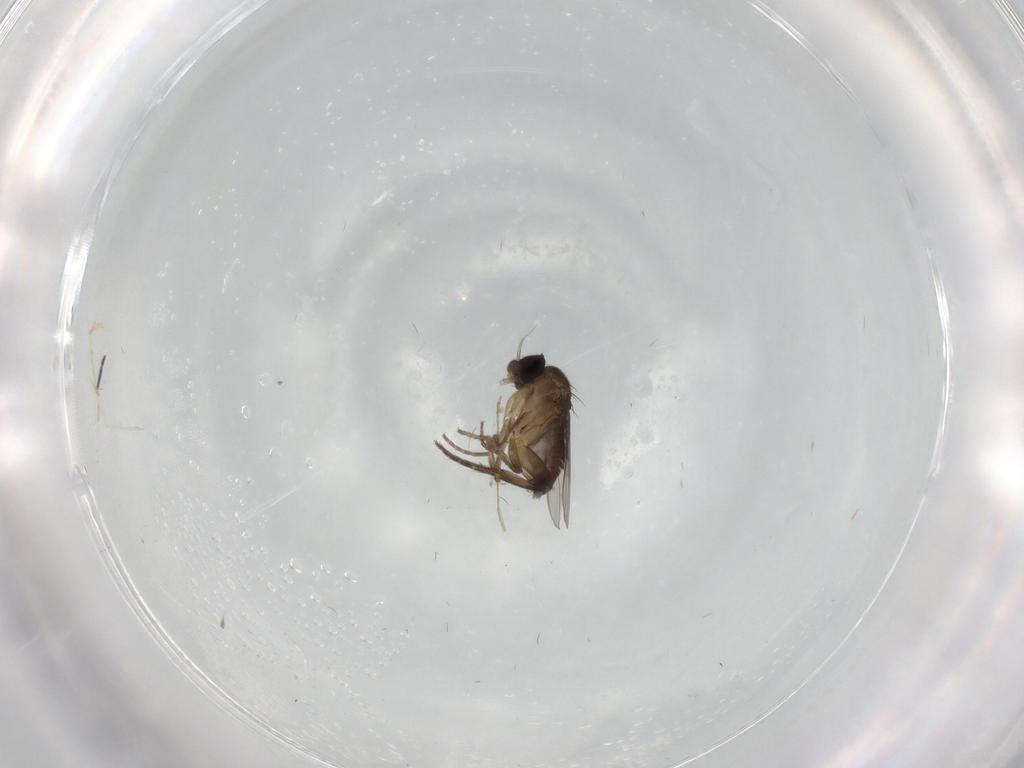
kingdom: Animalia
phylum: Arthropoda
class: Insecta
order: Diptera
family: Phoridae
